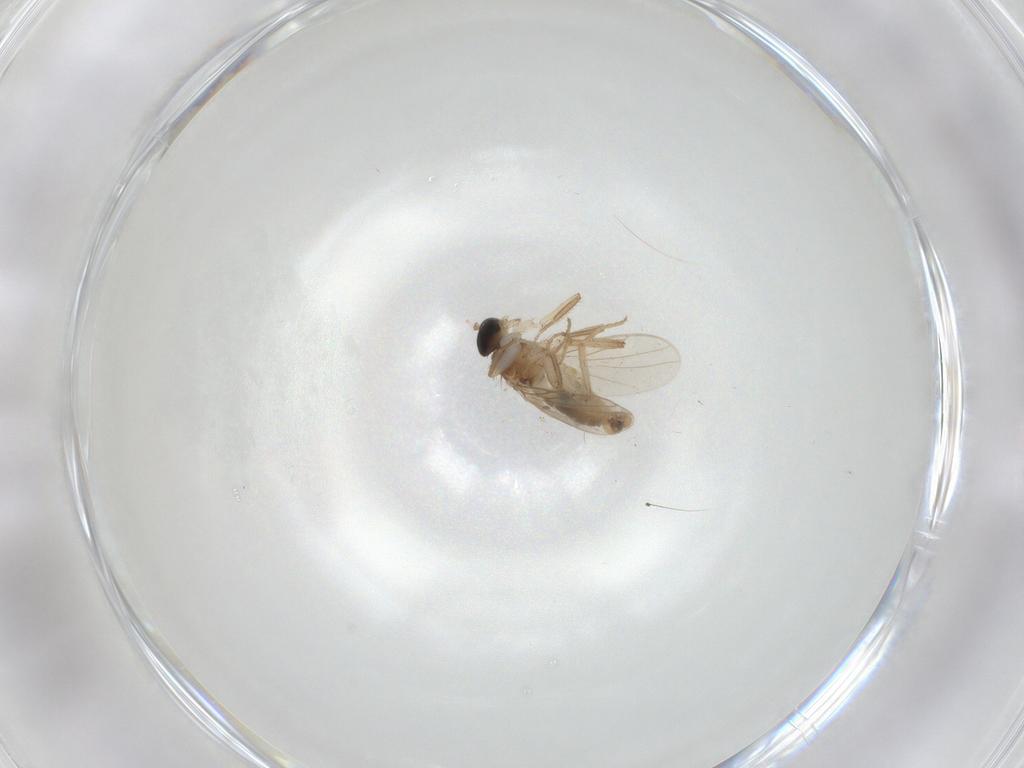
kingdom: Animalia
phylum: Arthropoda
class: Insecta
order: Diptera
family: Hybotidae
